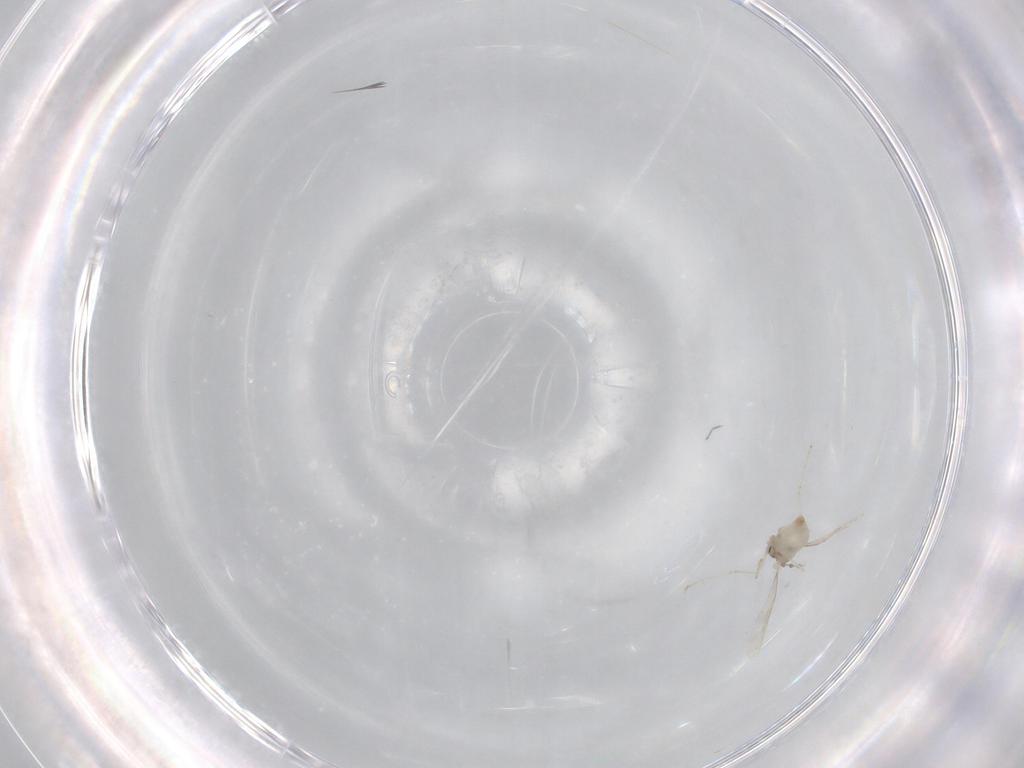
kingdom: Animalia
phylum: Arthropoda
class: Insecta
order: Diptera
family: Cecidomyiidae
